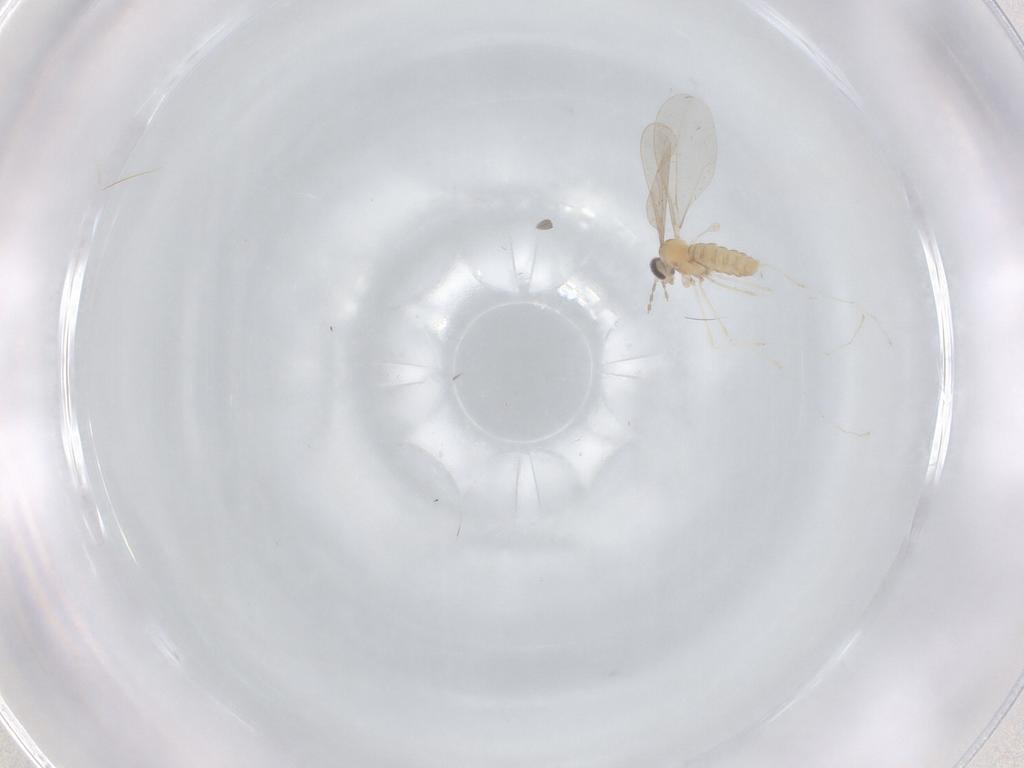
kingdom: Animalia
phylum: Arthropoda
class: Insecta
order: Diptera
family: Cecidomyiidae
